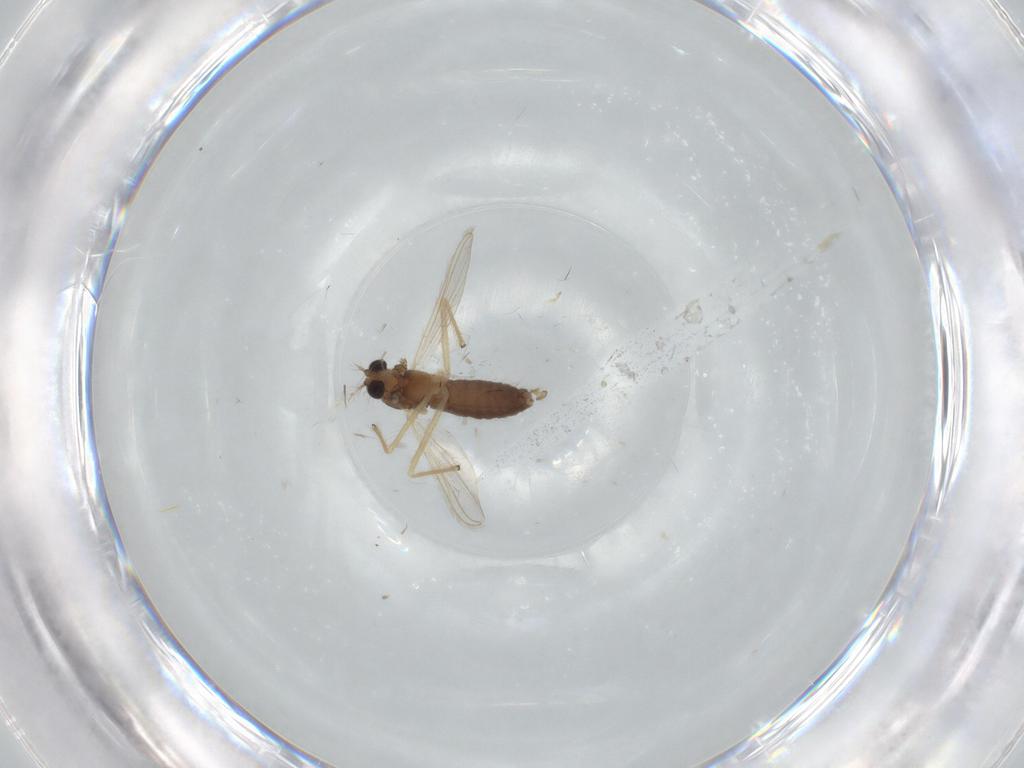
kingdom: Animalia
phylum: Arthropoda
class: Insecta
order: Diptera
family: Chironomidae
